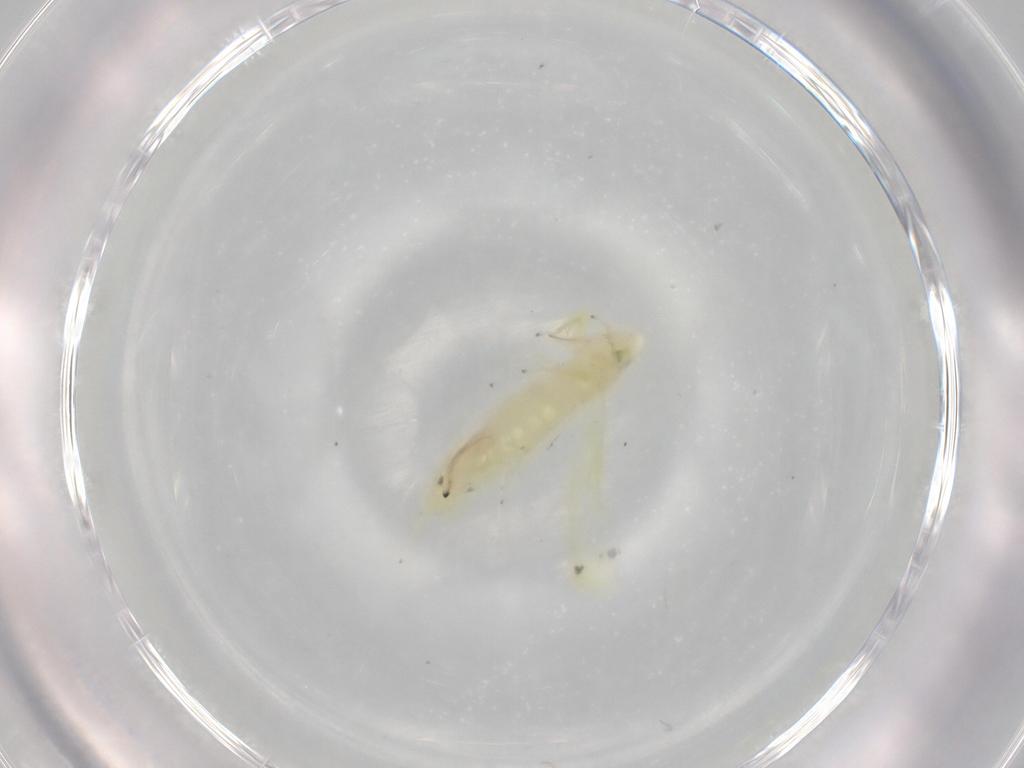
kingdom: Animalia
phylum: Arthropoda
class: Insecta
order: Hemiptera
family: Cicadellidae
